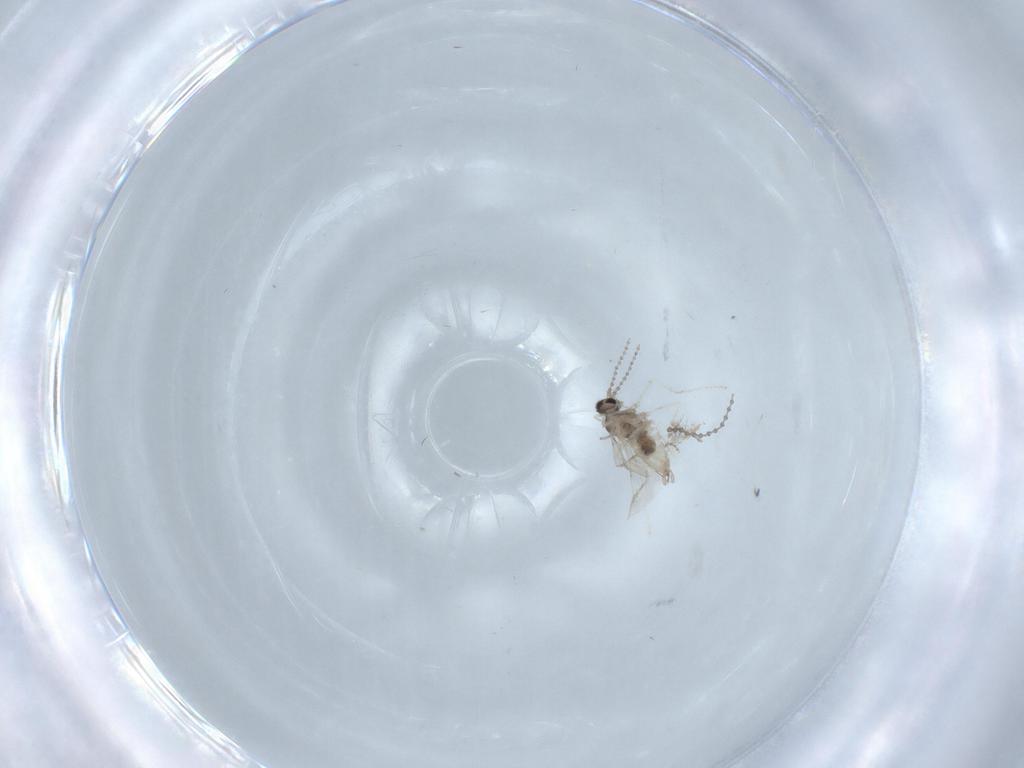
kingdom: Animalia
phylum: Arthropoda
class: Insecta
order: Diptera
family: Cecidomyiidae
